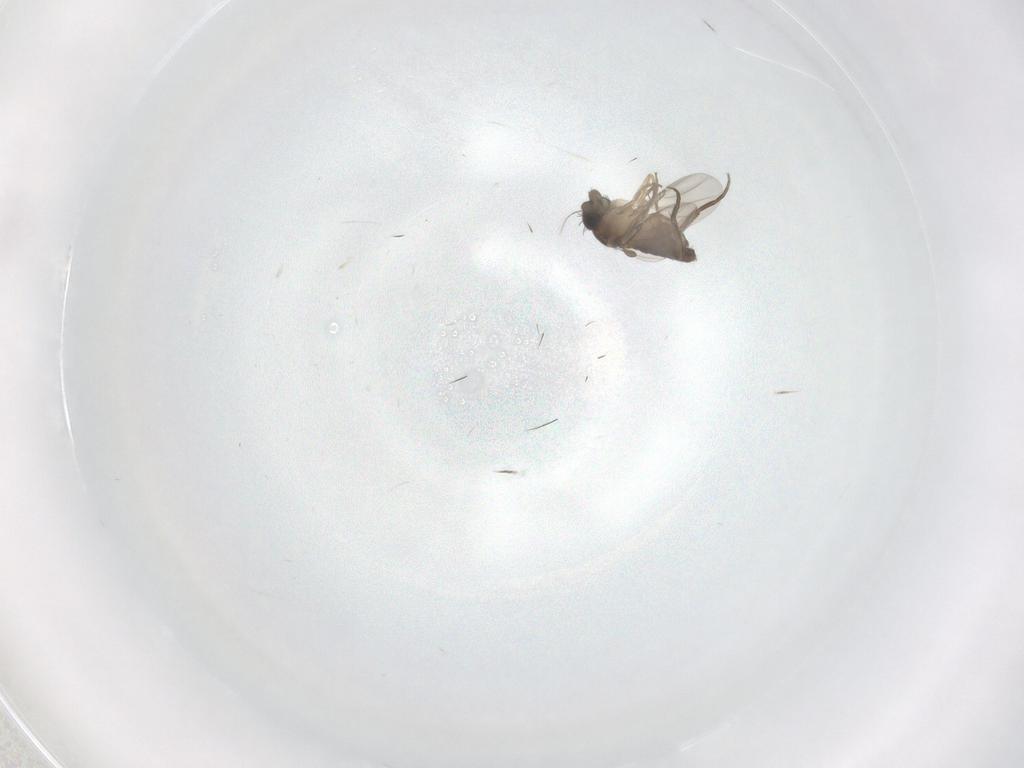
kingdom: Animalia
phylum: Arthropoda
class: Insecta
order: Diptera
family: Phoridae
